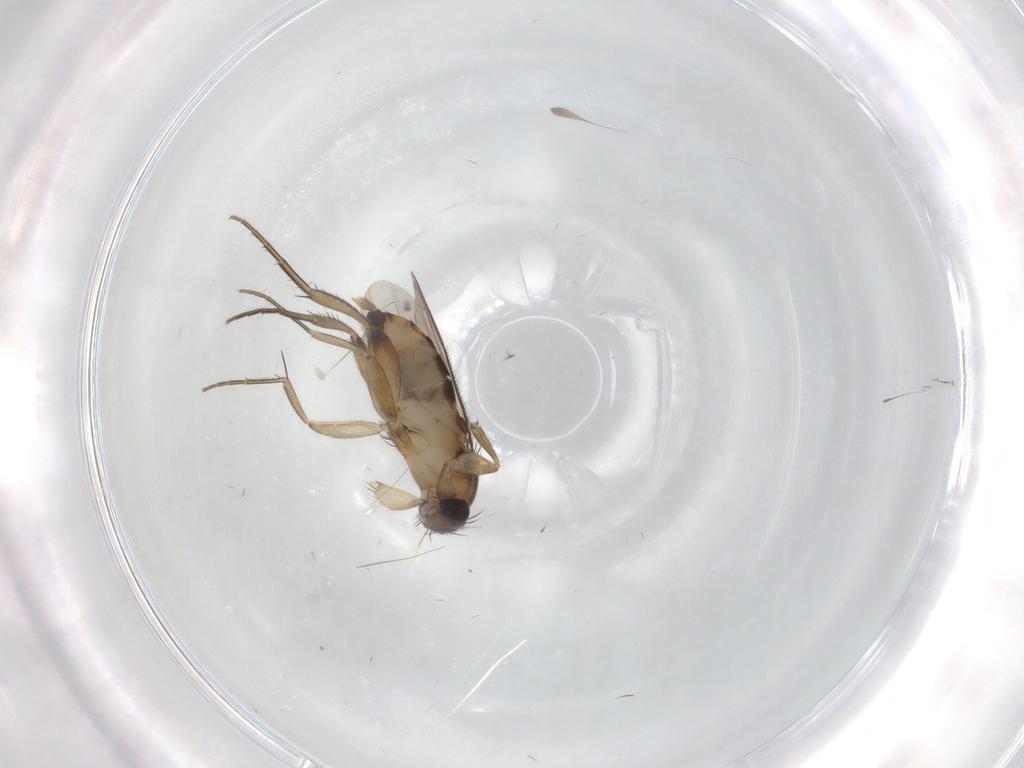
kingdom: Animalia
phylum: Arthropoda
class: Insecta
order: Diptera
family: Phoridae
